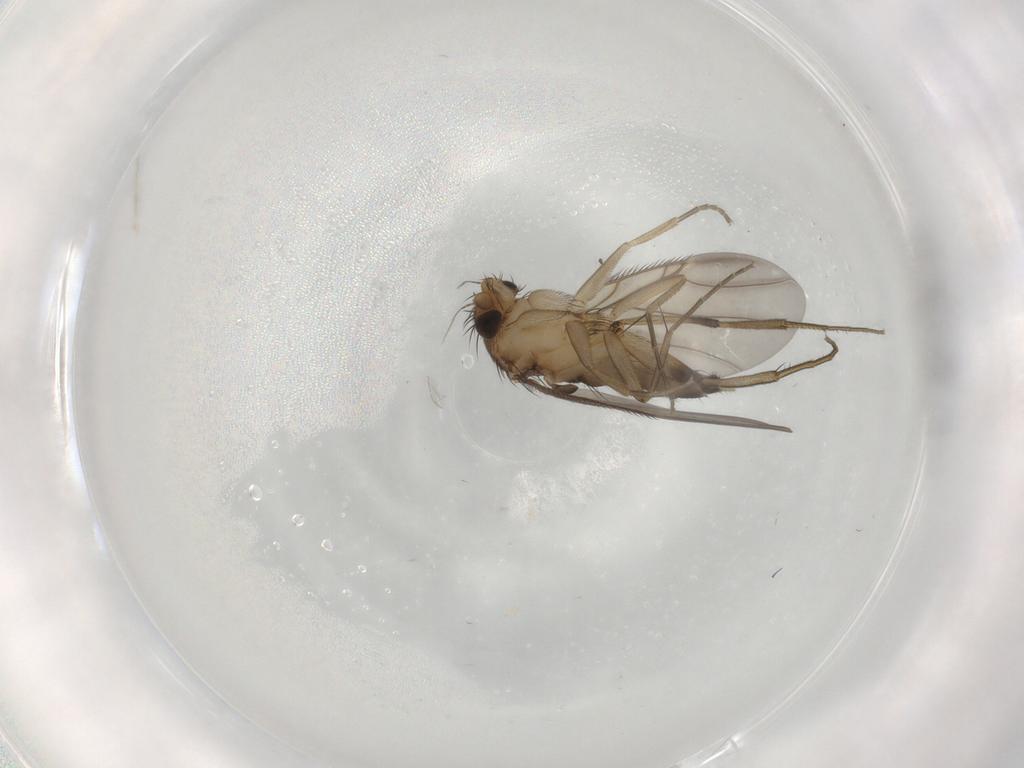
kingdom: Animalia
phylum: Arthropoda
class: Insecta
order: Diptera
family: Phoridae
